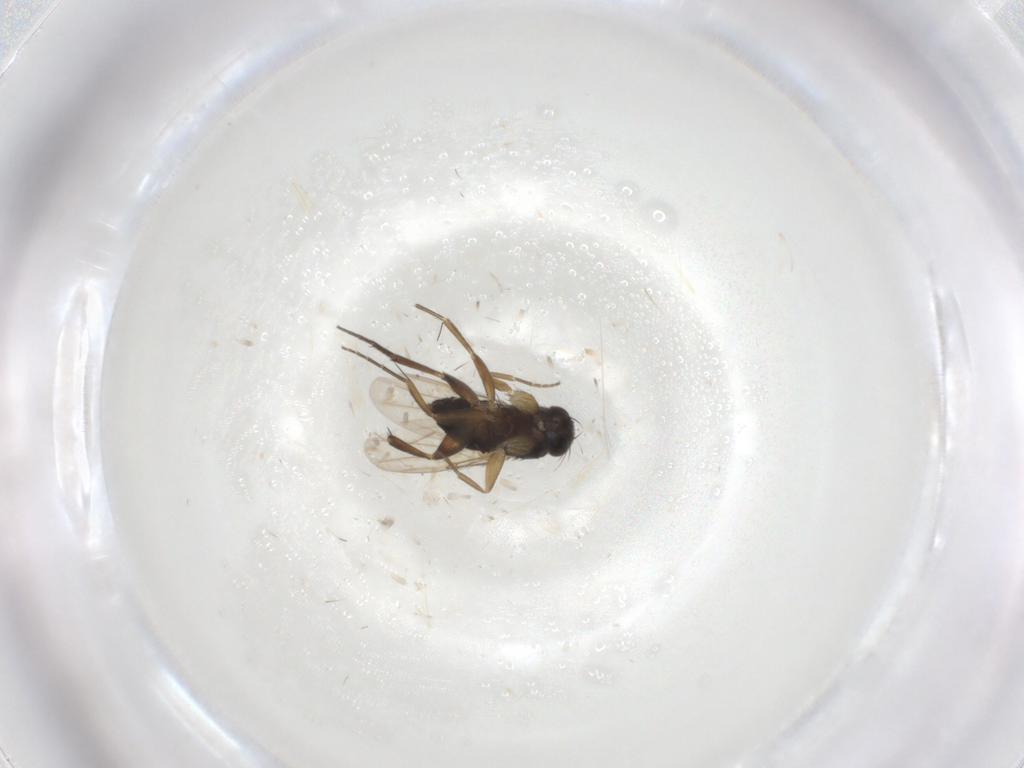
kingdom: Animalia
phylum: Arthropoda
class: Insecta
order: Diptera
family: Phoridae
